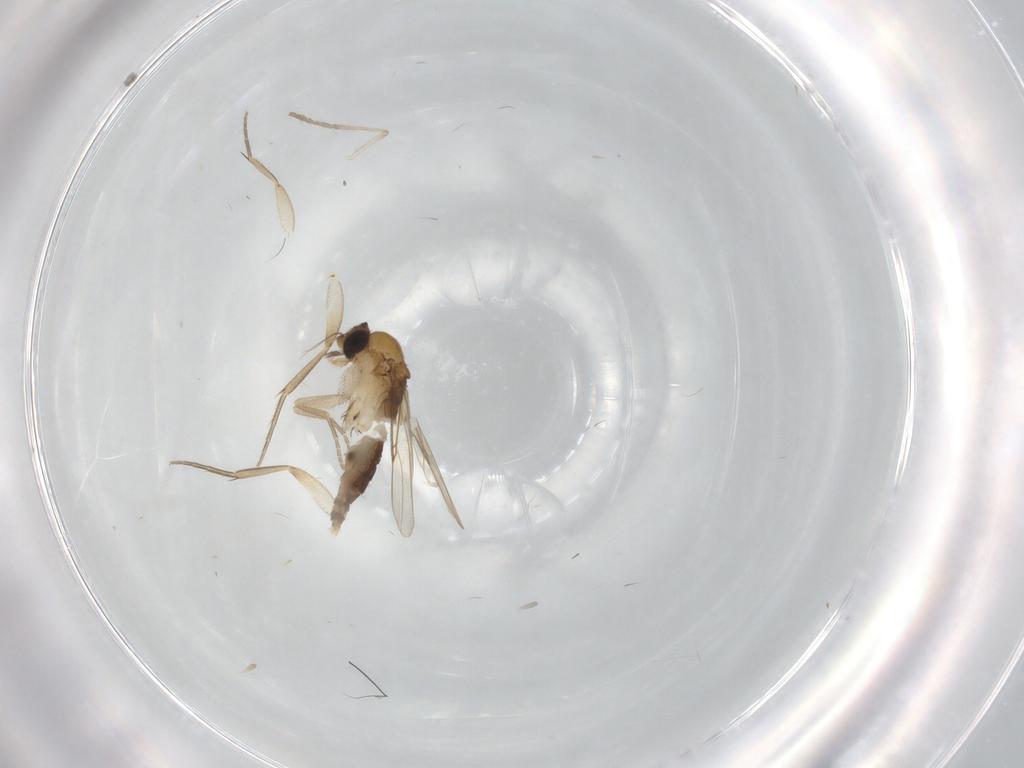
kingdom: Animalia
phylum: Arthropoda
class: Insecta
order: Diptera
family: Psychodidae
